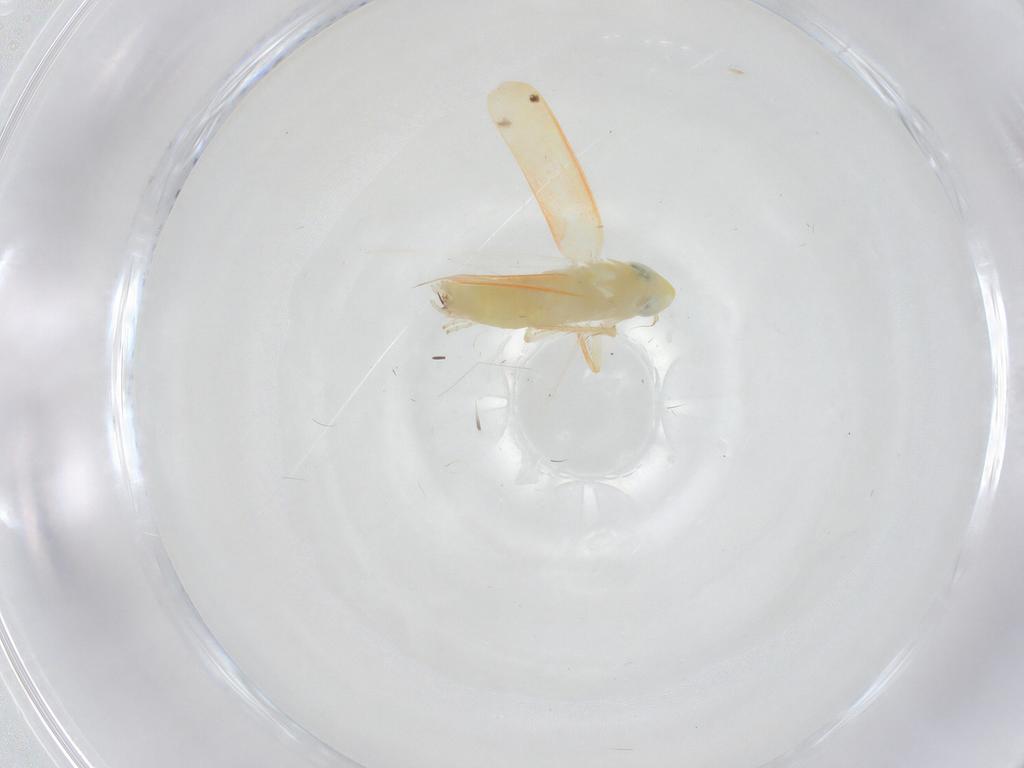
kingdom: Animalia
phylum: Arthropoda
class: Insecta
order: Hemiptera
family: Cicadellidae
